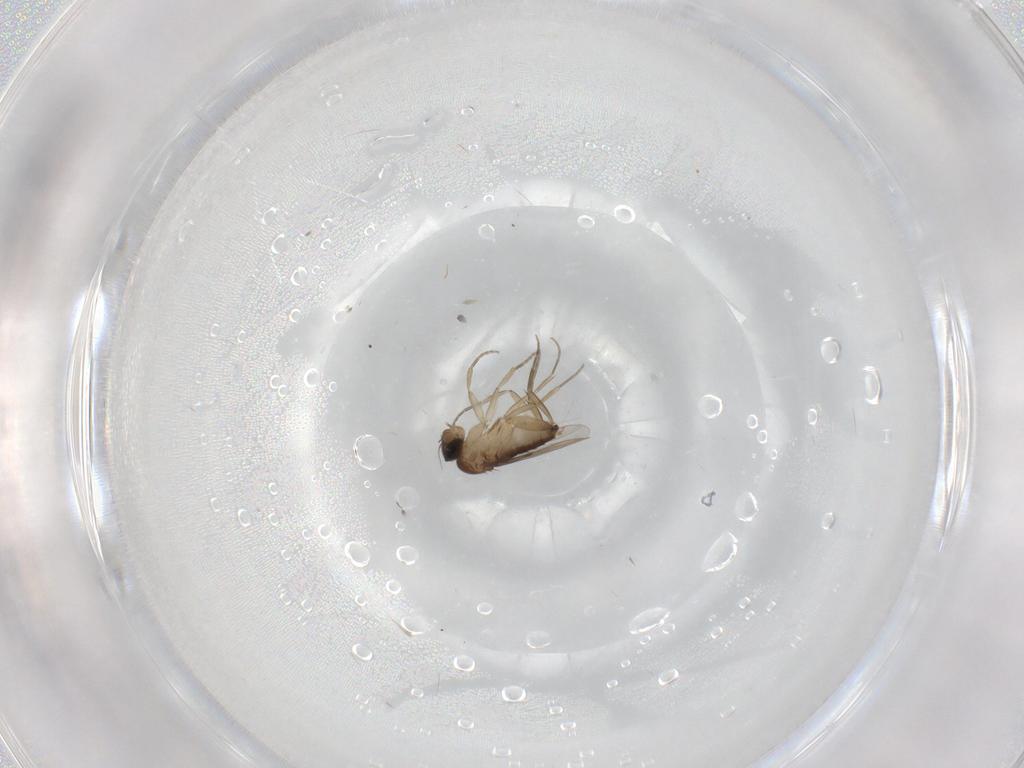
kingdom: Animalia
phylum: Arthropoda
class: Insecta
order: Diptera
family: Phoridae
